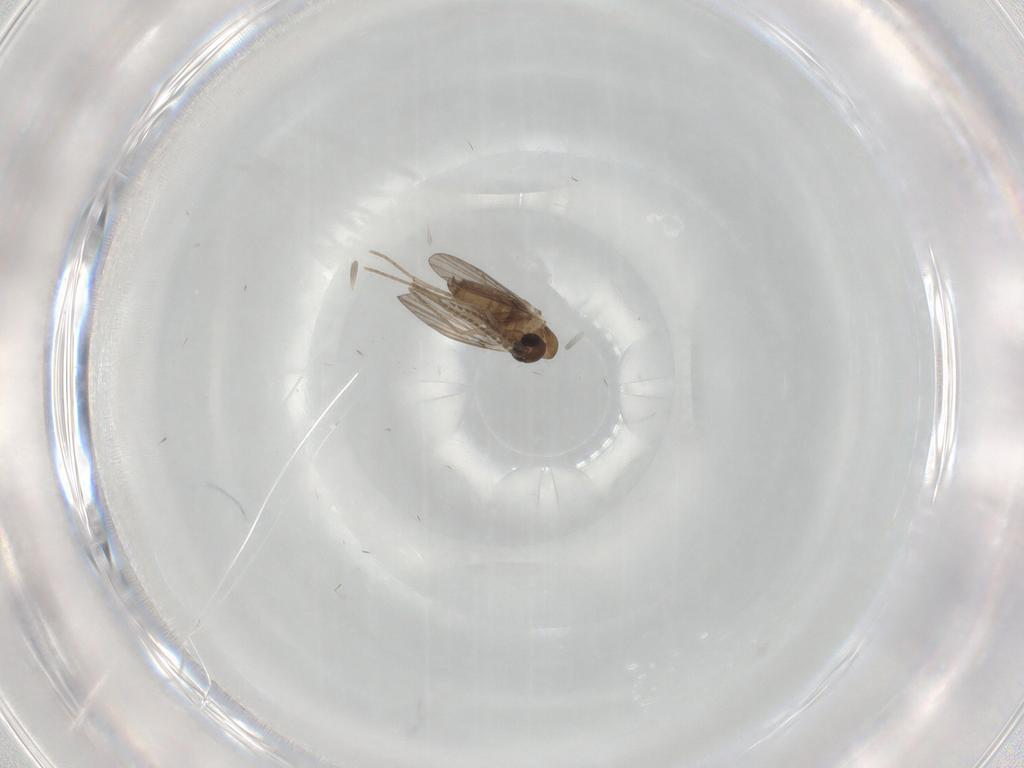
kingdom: Animalia
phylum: Arthropoda
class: Insecta
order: Diptera
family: Chironomidae
